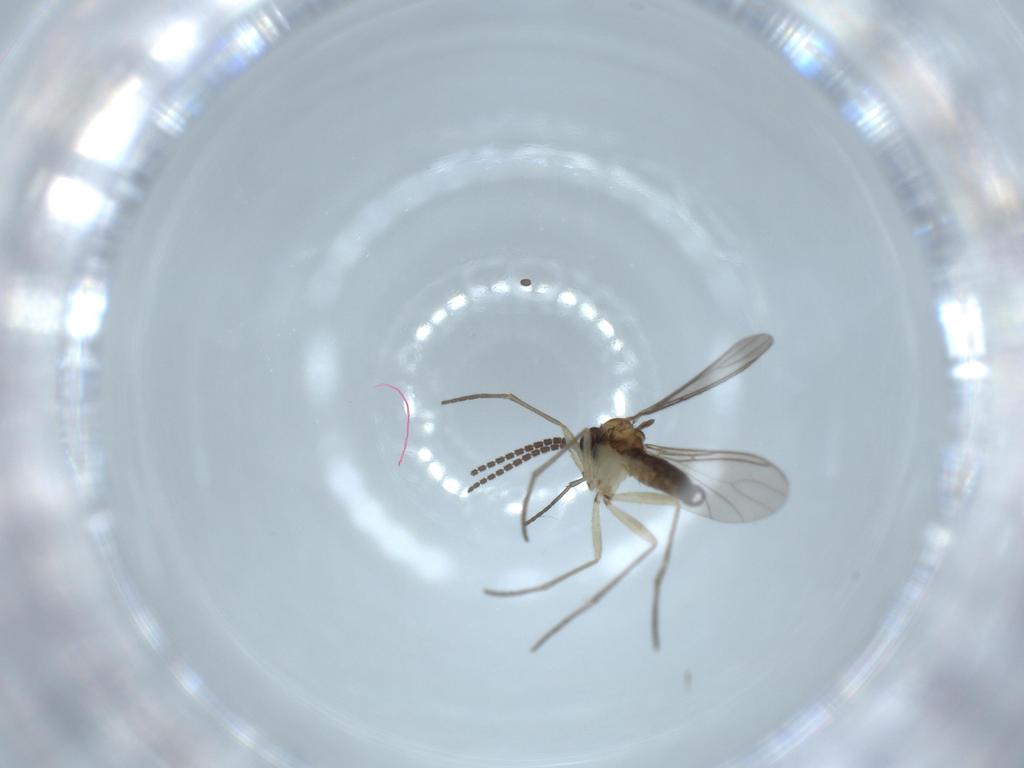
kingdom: Animalia
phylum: Arthropoda
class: Insecta
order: Diptera
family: Sciaridae
